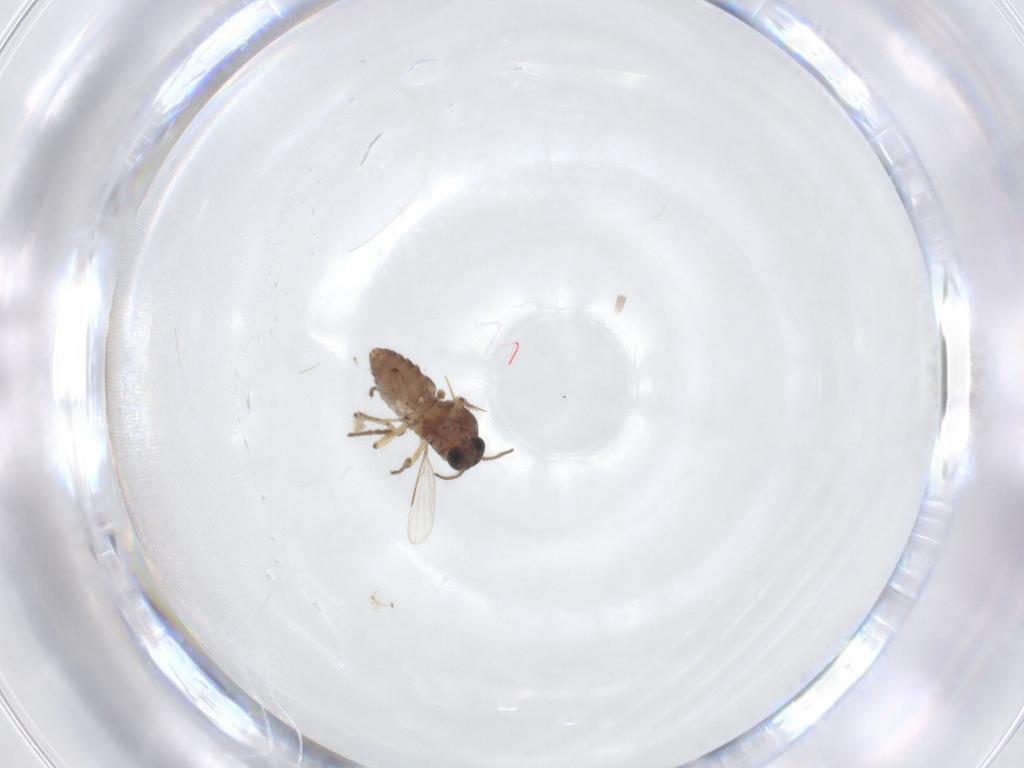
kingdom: Animalia
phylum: Arthropoda
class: Insecta
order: Diptera
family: Ceratopogonidae
